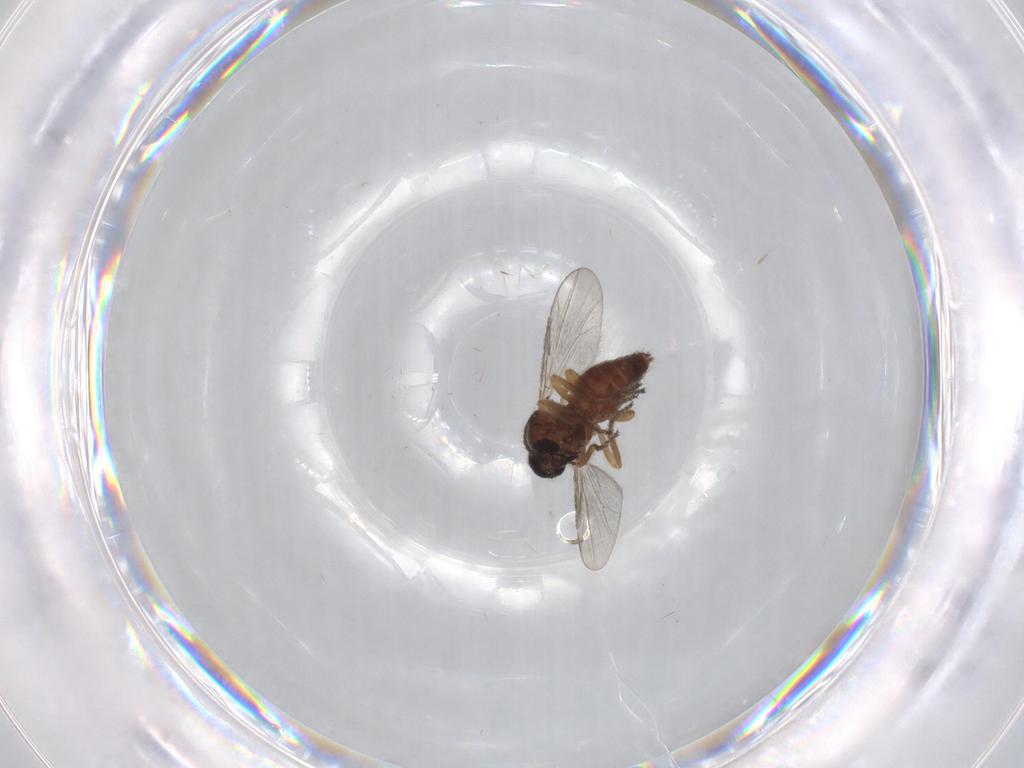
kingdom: Animalia
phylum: Arthropoda
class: Insecta
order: Diptera
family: Ceratopogonidae
